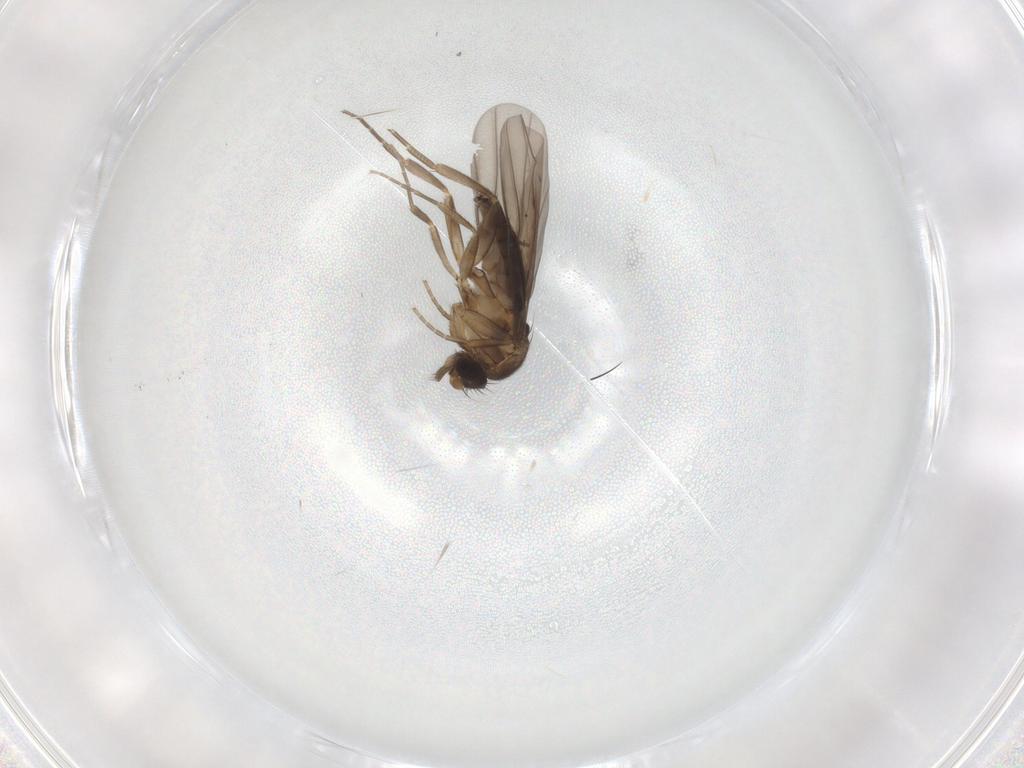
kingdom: Animalia
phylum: Arthropoda
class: Insecta
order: Diptera
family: Phoridae
